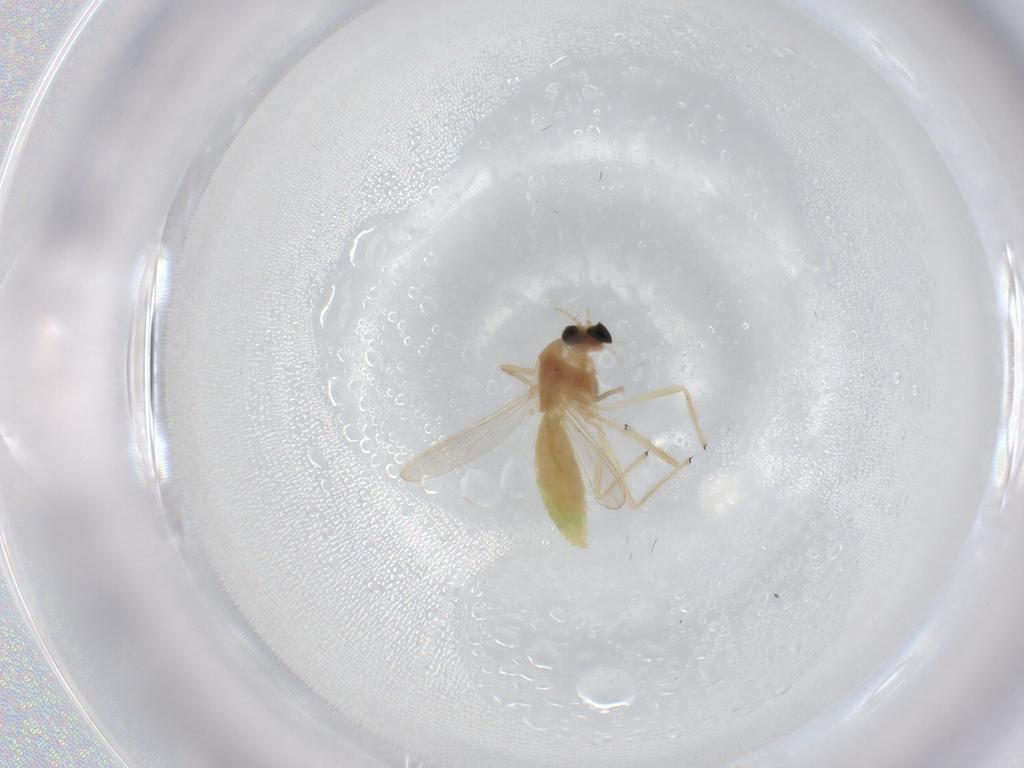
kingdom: Animalia
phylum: Arthropoda
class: Insecta
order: Diptera
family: Chironomidae
